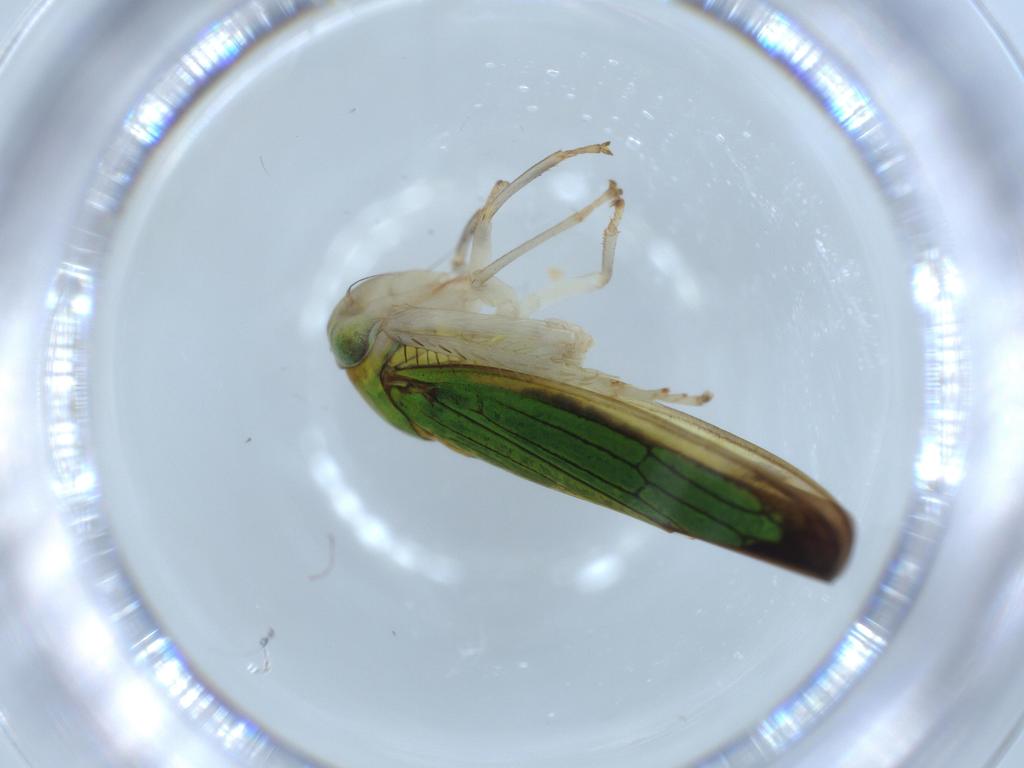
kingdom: Animalia
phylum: Arthropoda
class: Insecta
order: Hemiptera
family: Cicadellidae
